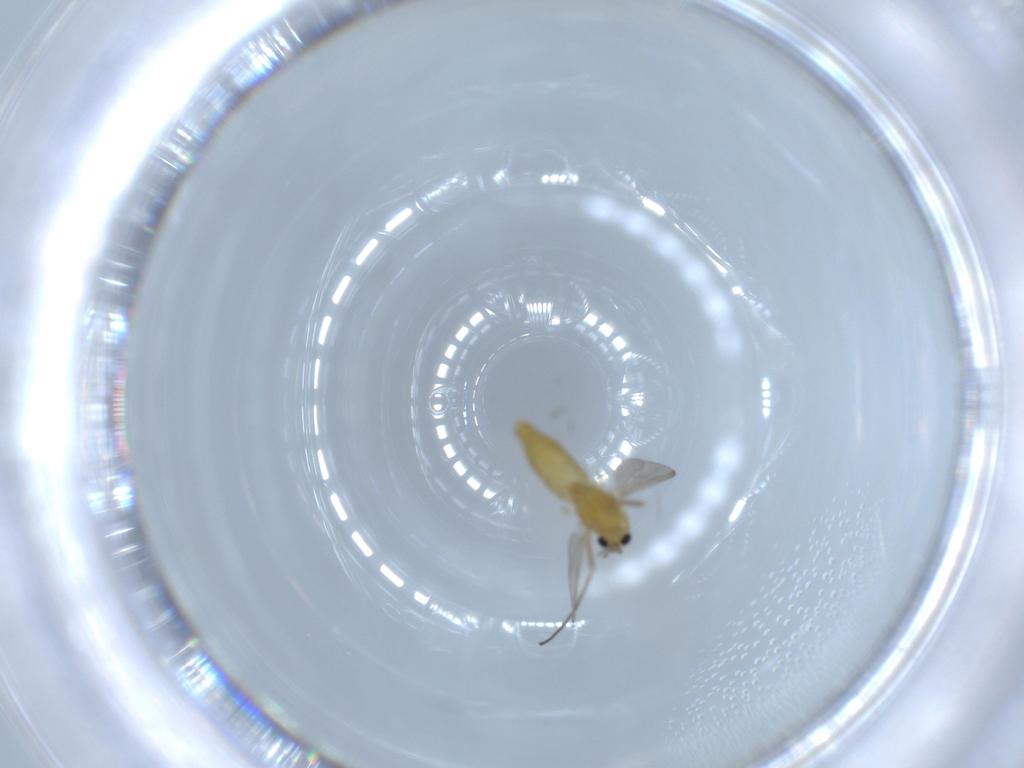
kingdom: Animalia
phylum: Arthropoda
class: Insecta
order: Diptera
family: Chironomidae
